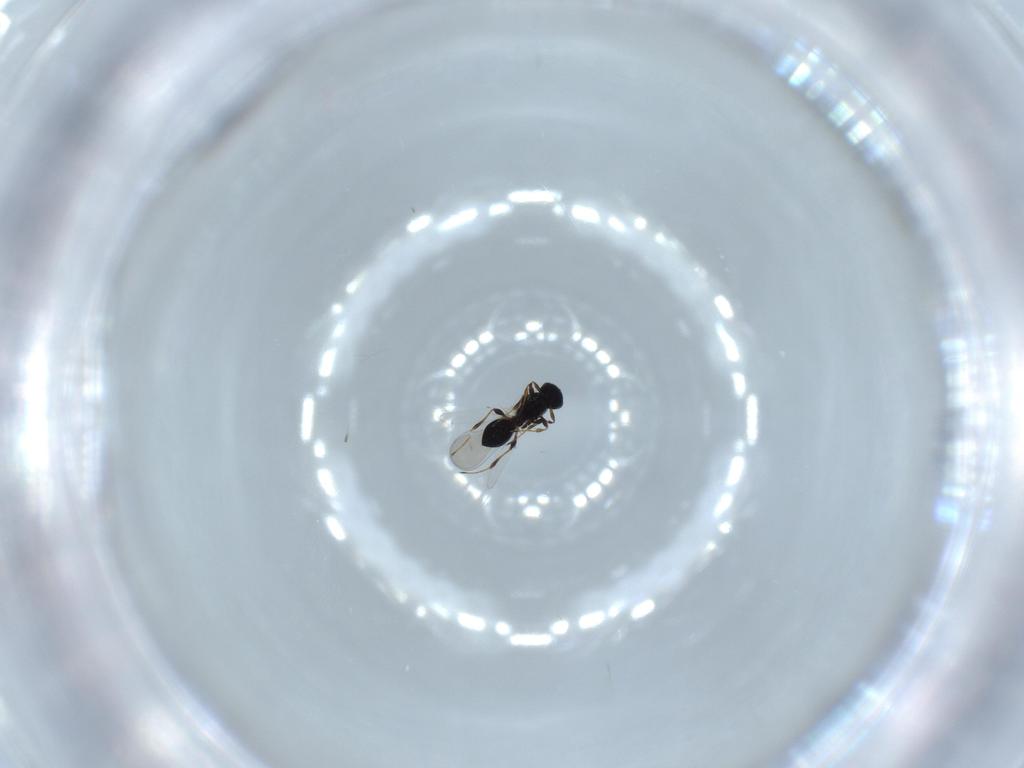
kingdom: Animalia
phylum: Arthropoda
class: Insecta
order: Hymenoptera
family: Platygastridae
